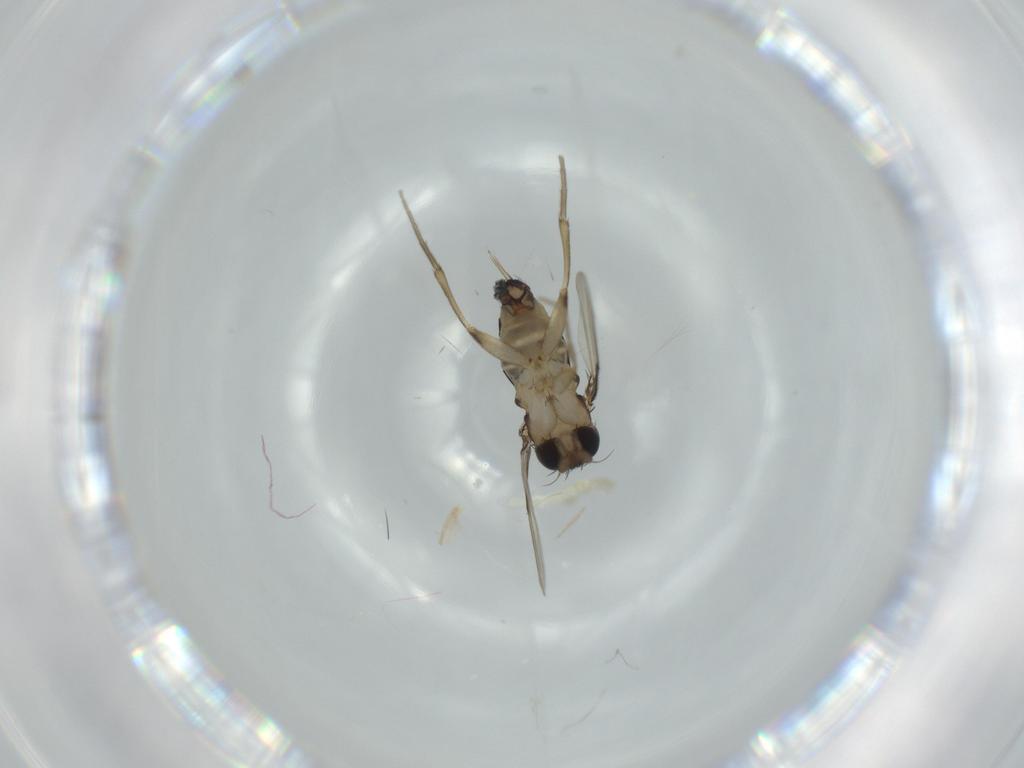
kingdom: Animalia
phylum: Arthropoda
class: Insecta
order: Diptera
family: Phoridae
